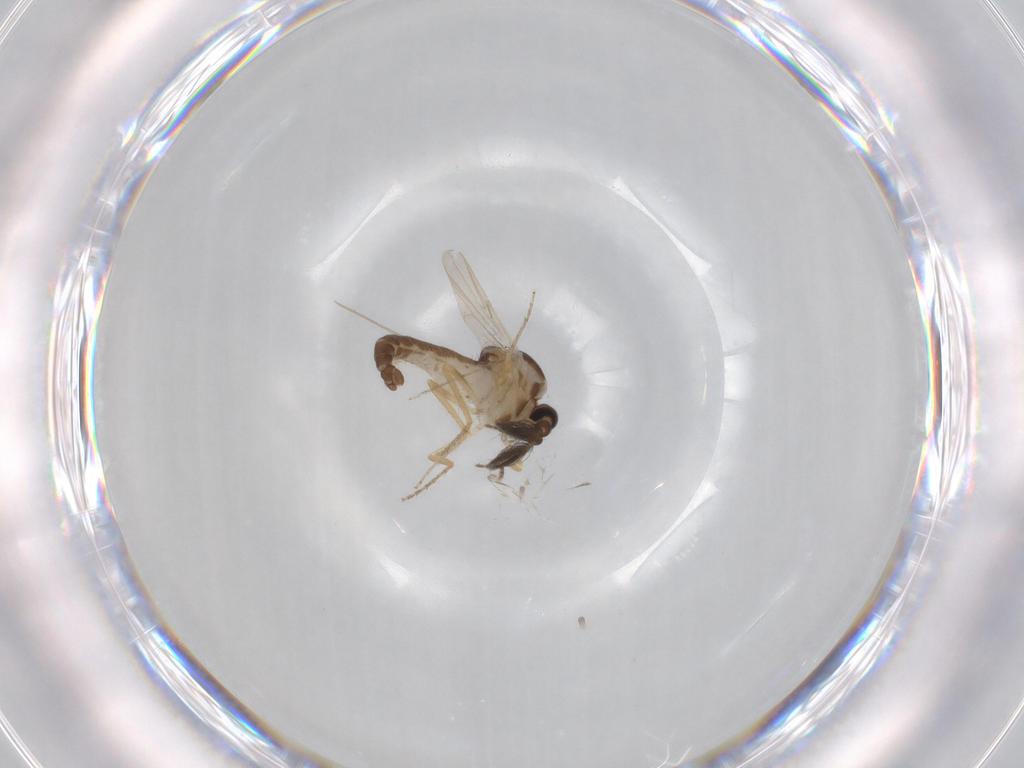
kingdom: Animalia
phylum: Arthropoda
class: Insecta
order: Diptera
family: Ceratopogonidae
